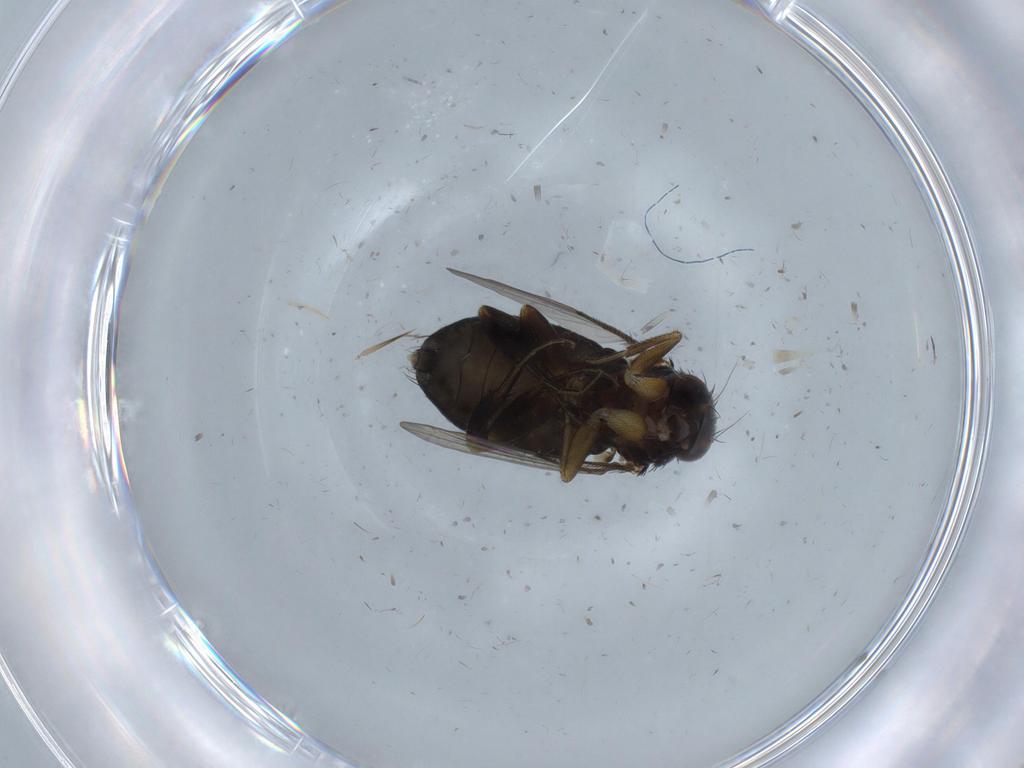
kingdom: Animalia
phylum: Arthropoda
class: Insecta
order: Diptera
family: Phoridae
